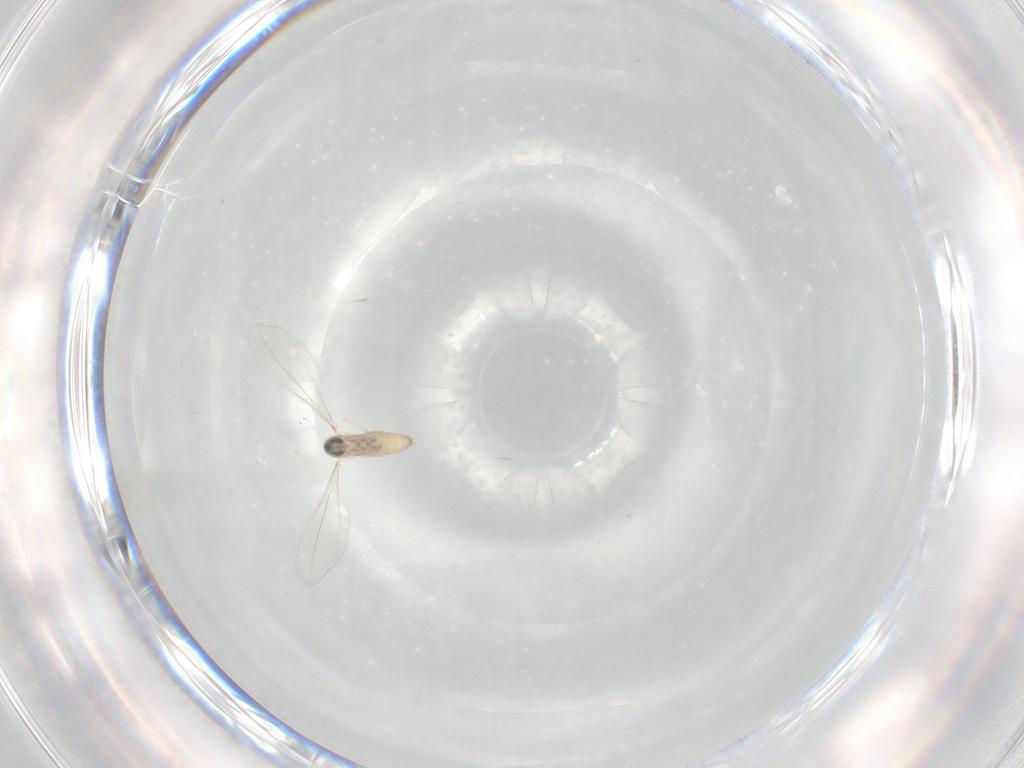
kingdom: Animalia
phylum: Arthropoda
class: Insecta
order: Diptera
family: Cecidomyiidae
